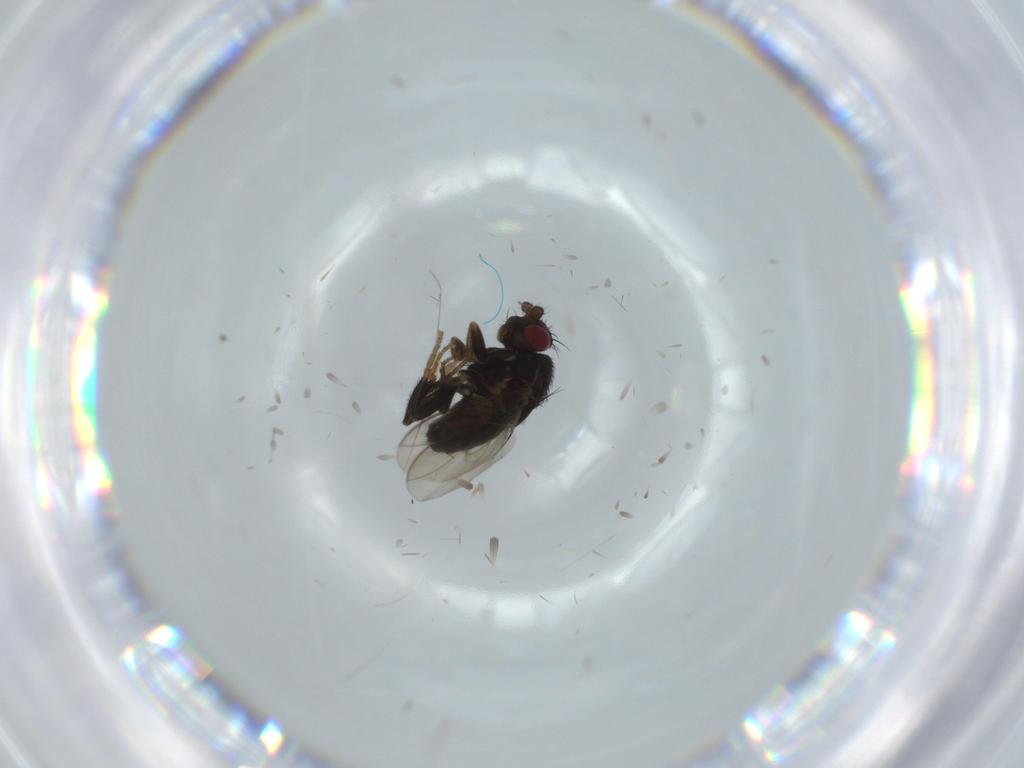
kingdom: Animalia
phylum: Arthropoda
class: Insecta
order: Diptera
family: Sphaeroceridae
